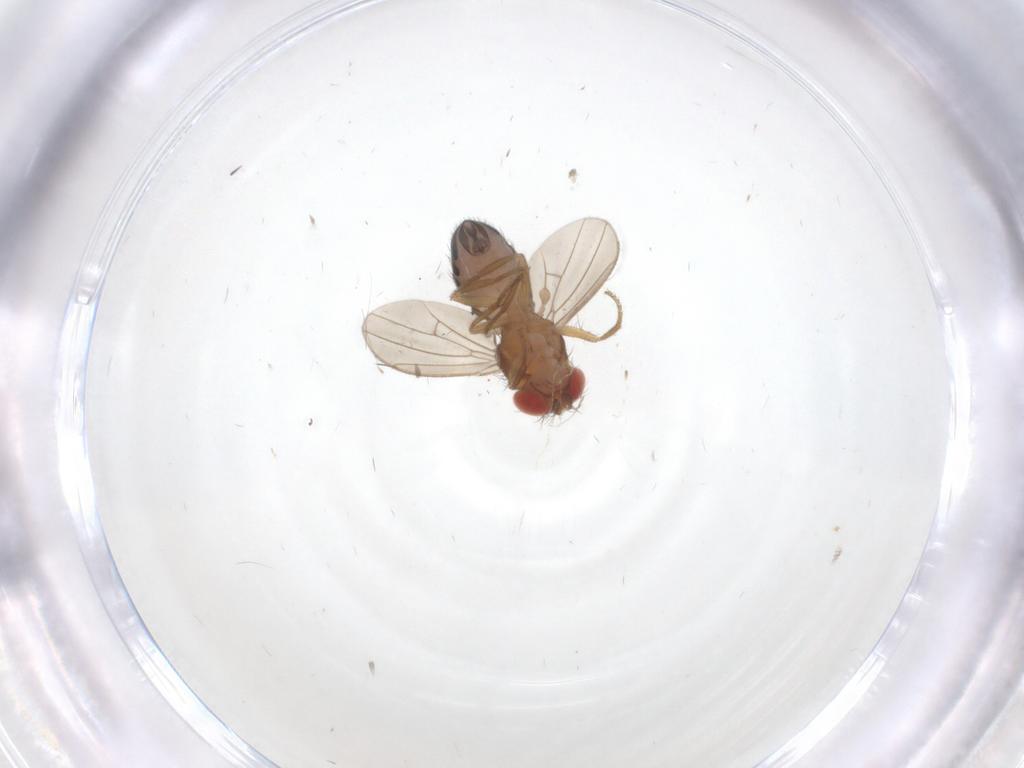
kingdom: Animalia
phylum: Arthropoda
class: Insecta
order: Diptera
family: Drosophilidae
